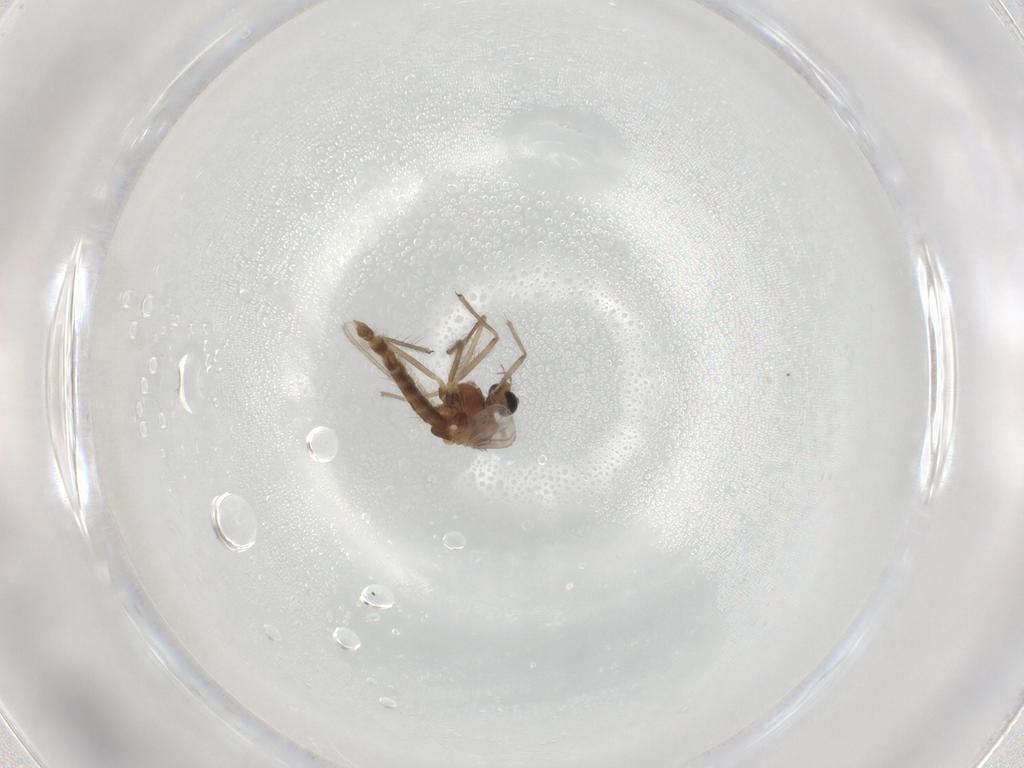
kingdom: Animalia
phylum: Arthropoda
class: Insecta
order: Diptera
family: Chironomidae
